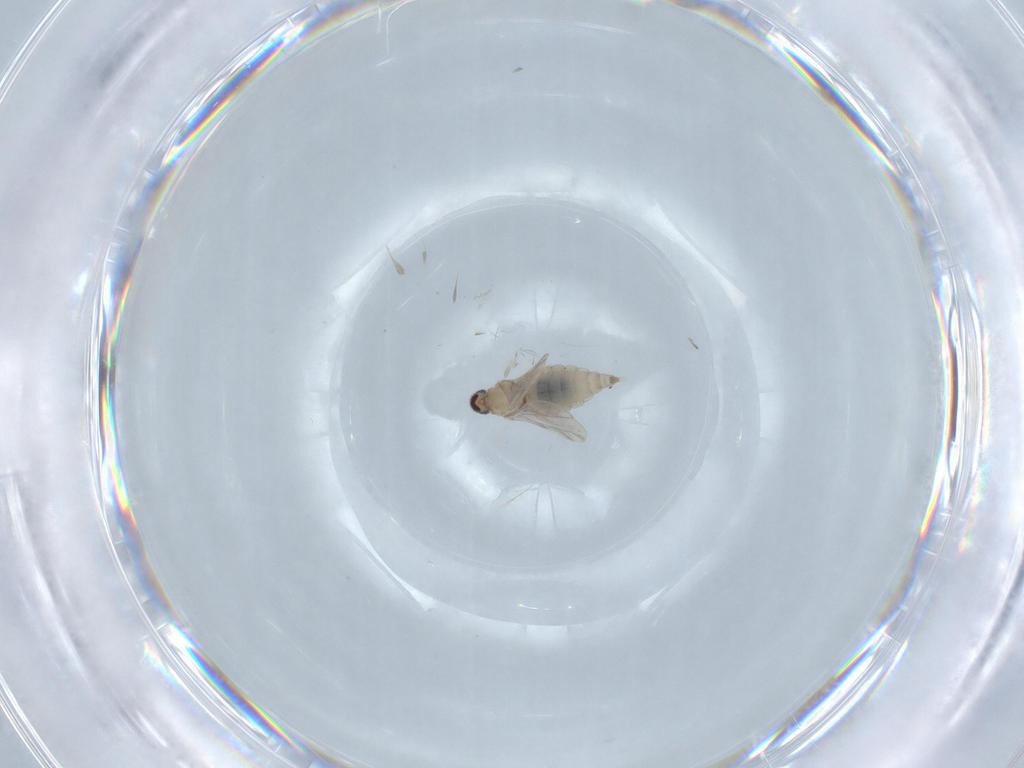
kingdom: Animalia
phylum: Arthropoda
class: Insecta
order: Diptera
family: Cecidomyiidae
